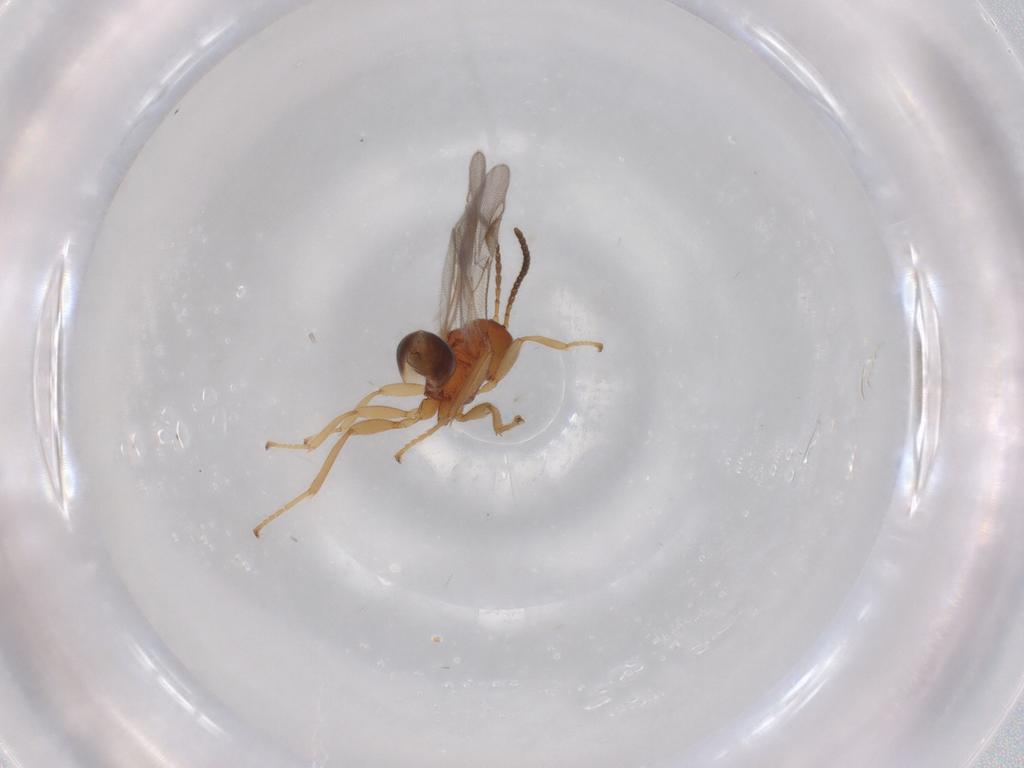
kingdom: Animalia
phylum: Arthropoda
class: Insecta
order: Hymenoptera
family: Braconidae
